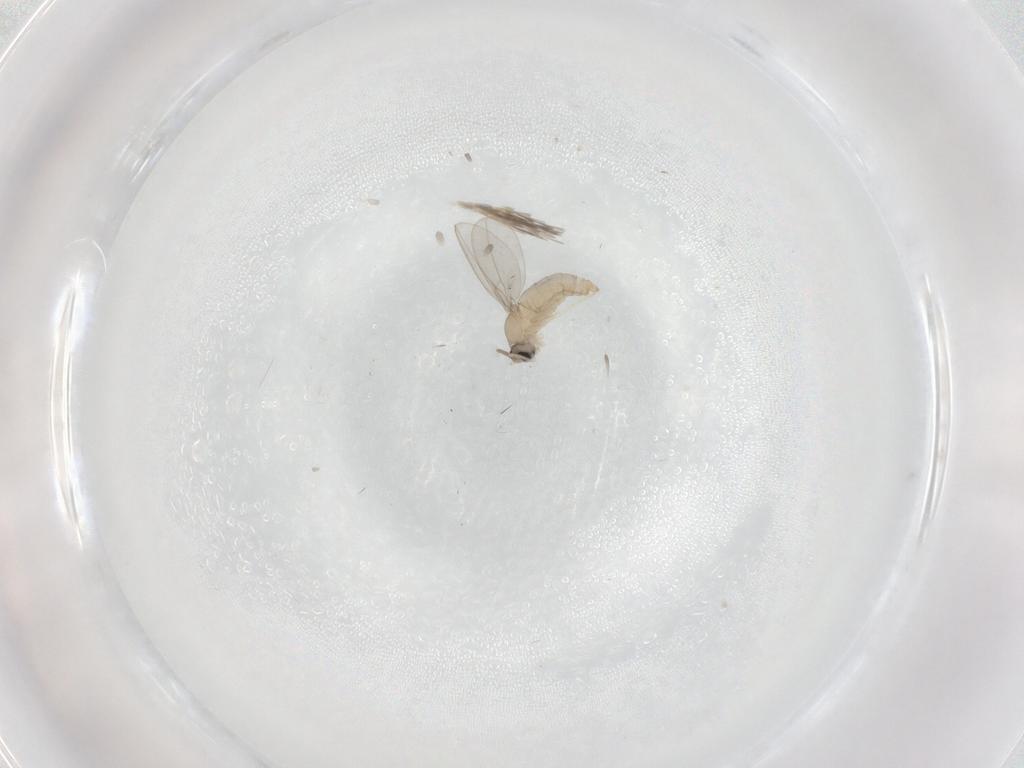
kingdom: Animalia
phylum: Arthropoda
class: Insecta
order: Diptera
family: Cecidomyiidae
